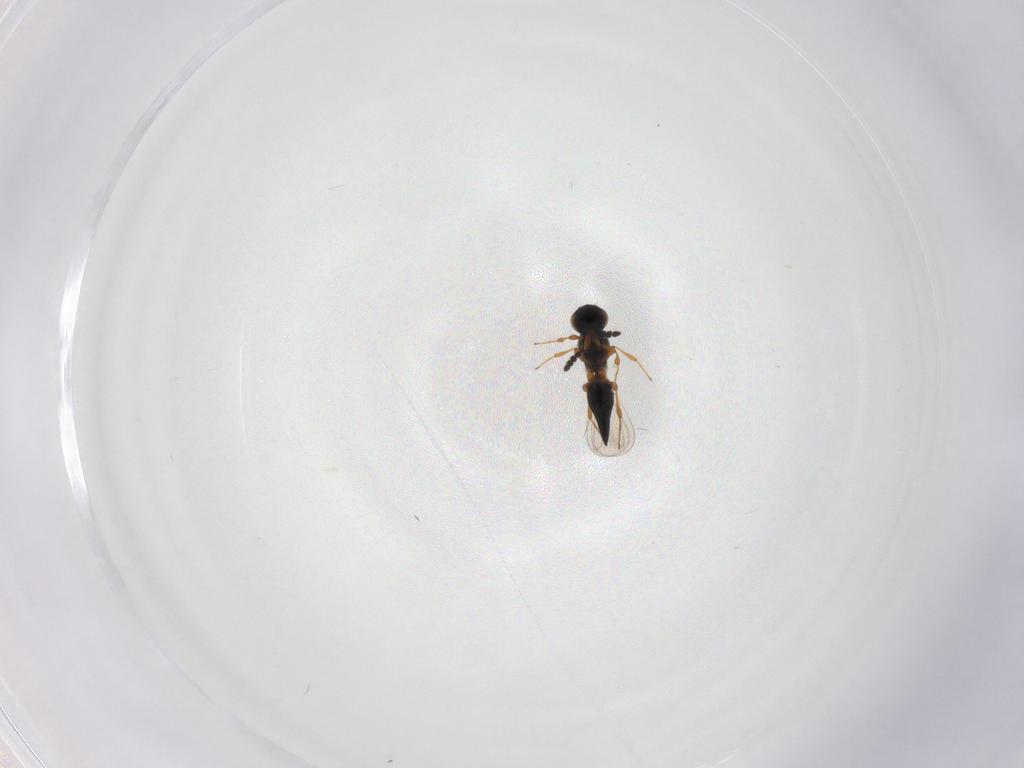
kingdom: Animalia
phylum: Arthropoda
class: Insecta
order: Hymenoptera
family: Platygastridae
